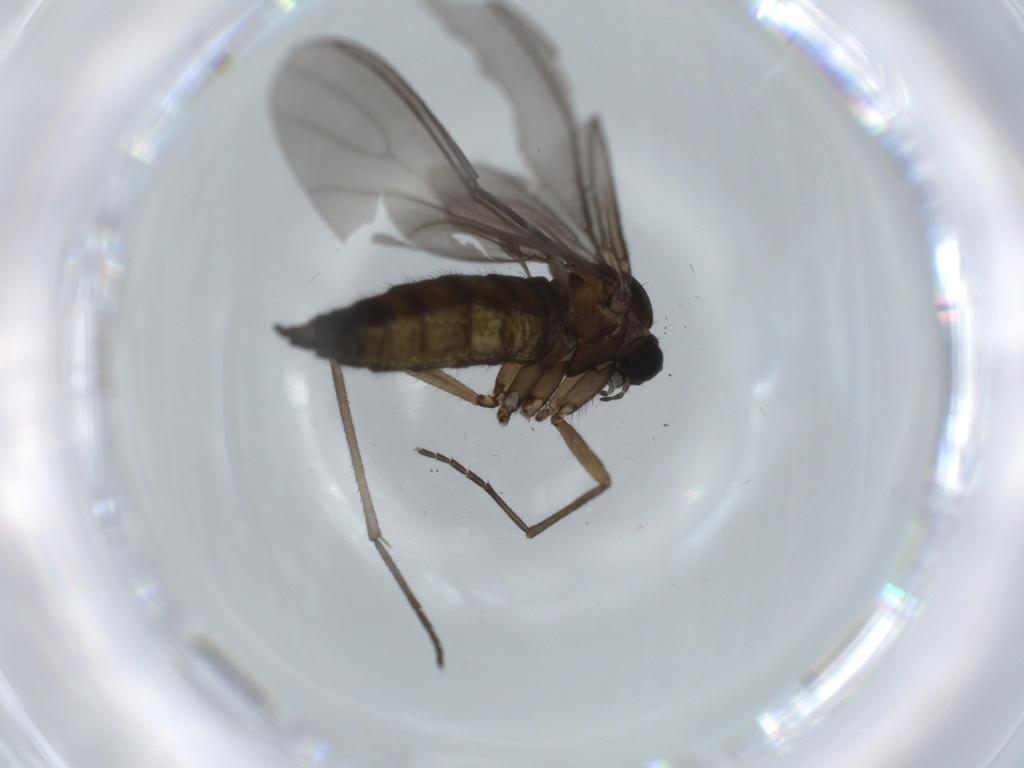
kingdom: Animalia
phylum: Arthropoda
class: Insecta
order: Diptera
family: Sciaridae
